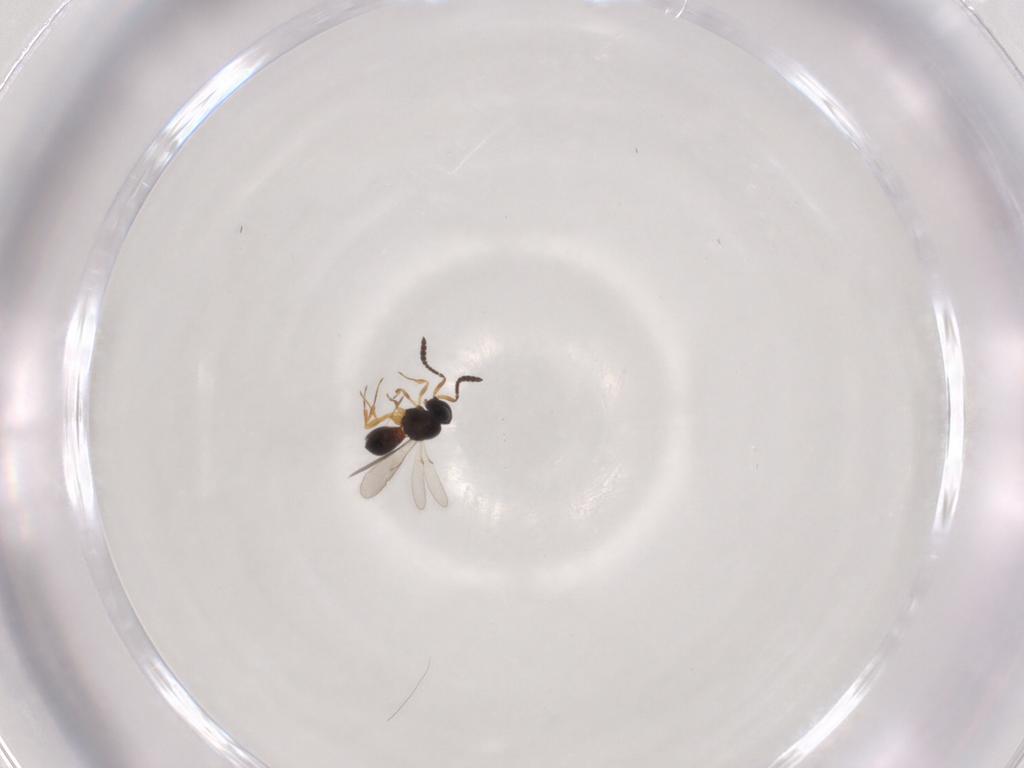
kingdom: Animalia
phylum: Arthropoda
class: Insecta
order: Hymenoptera
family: Scelionidae
